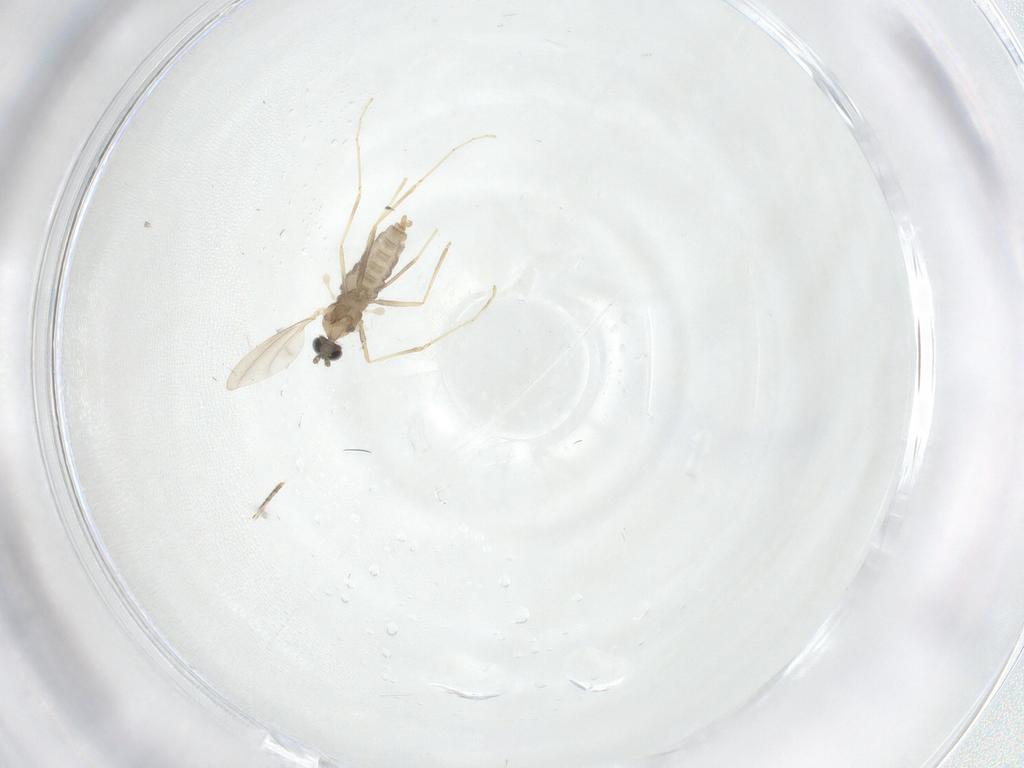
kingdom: Animalia
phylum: Arthropoda
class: Insecta
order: Diptera
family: Cecidomyiidae
